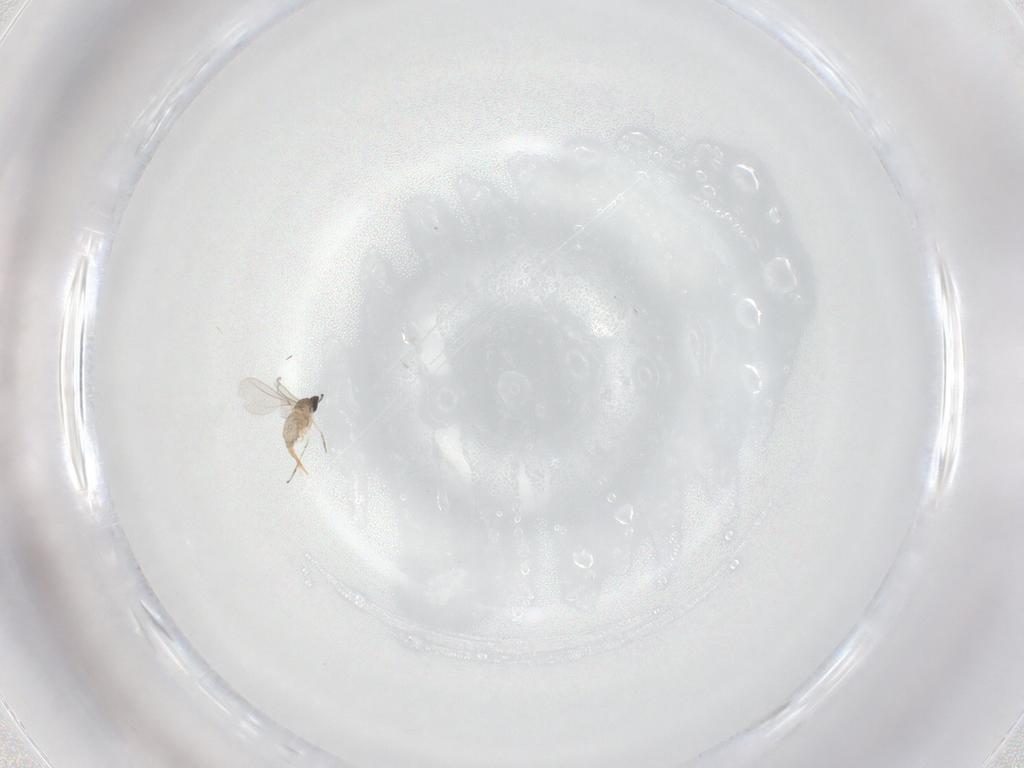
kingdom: Animalia
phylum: Arthropoda
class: Insecta
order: Diptera
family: Cecidomyiidae
